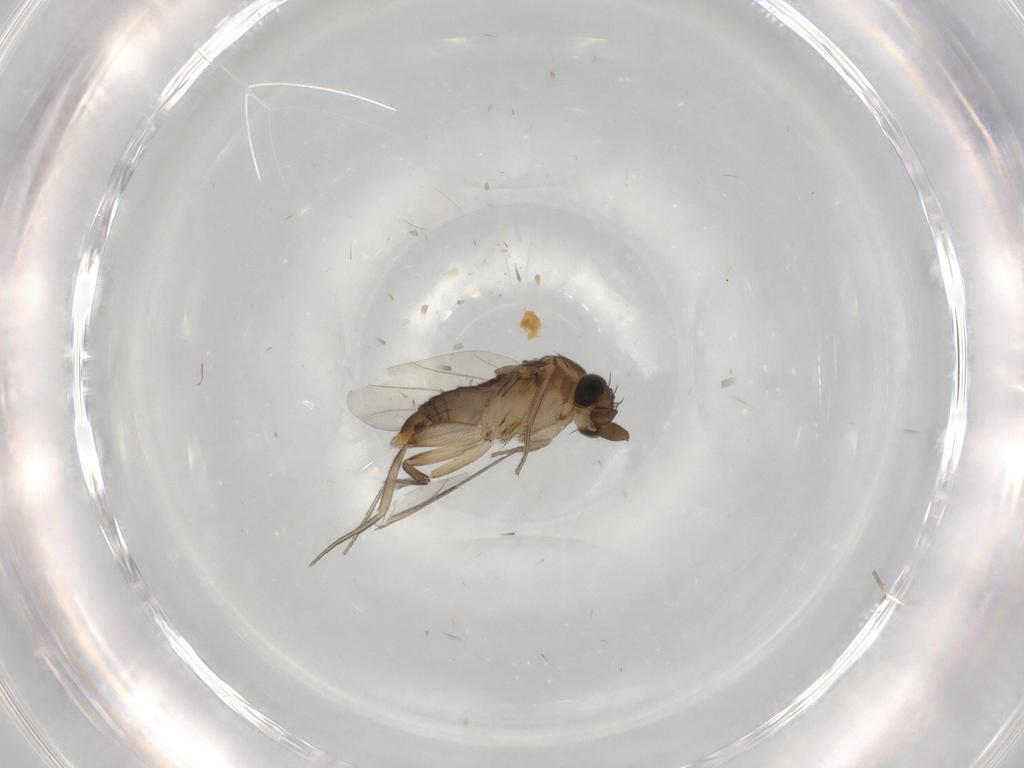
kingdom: Animalia
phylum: Arthropoda
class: Insecta
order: Diptera
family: Phoridae
